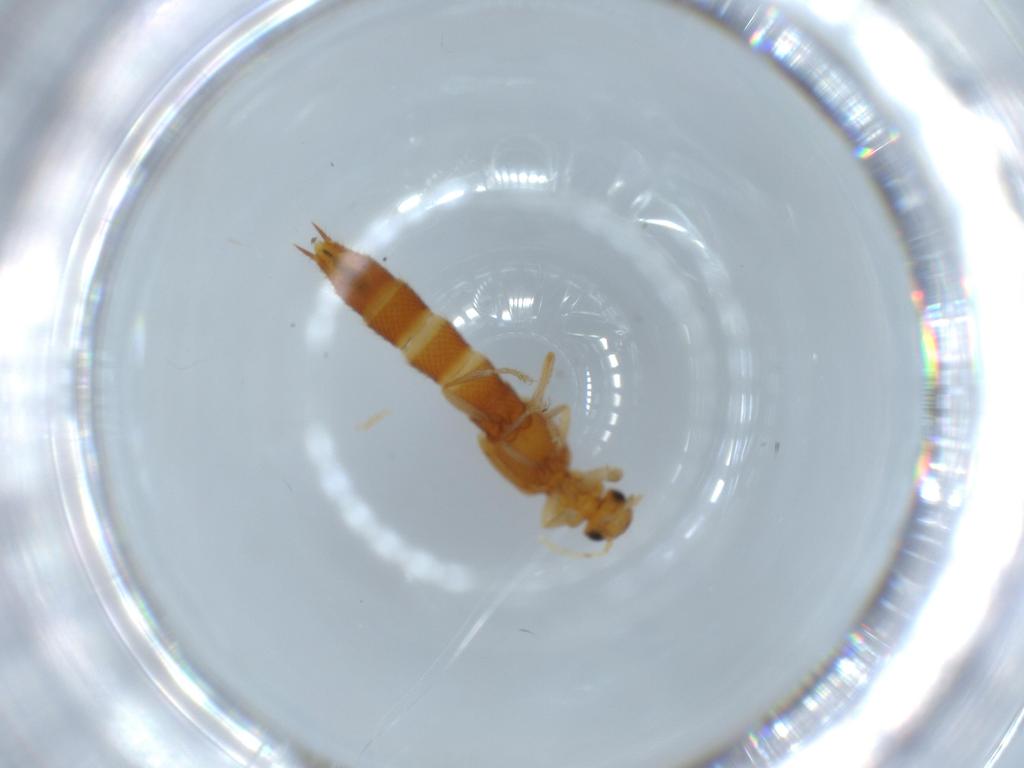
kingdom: Animalia
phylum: Arthropoda
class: Insecta
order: Coleoptera
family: Staphylinidae
